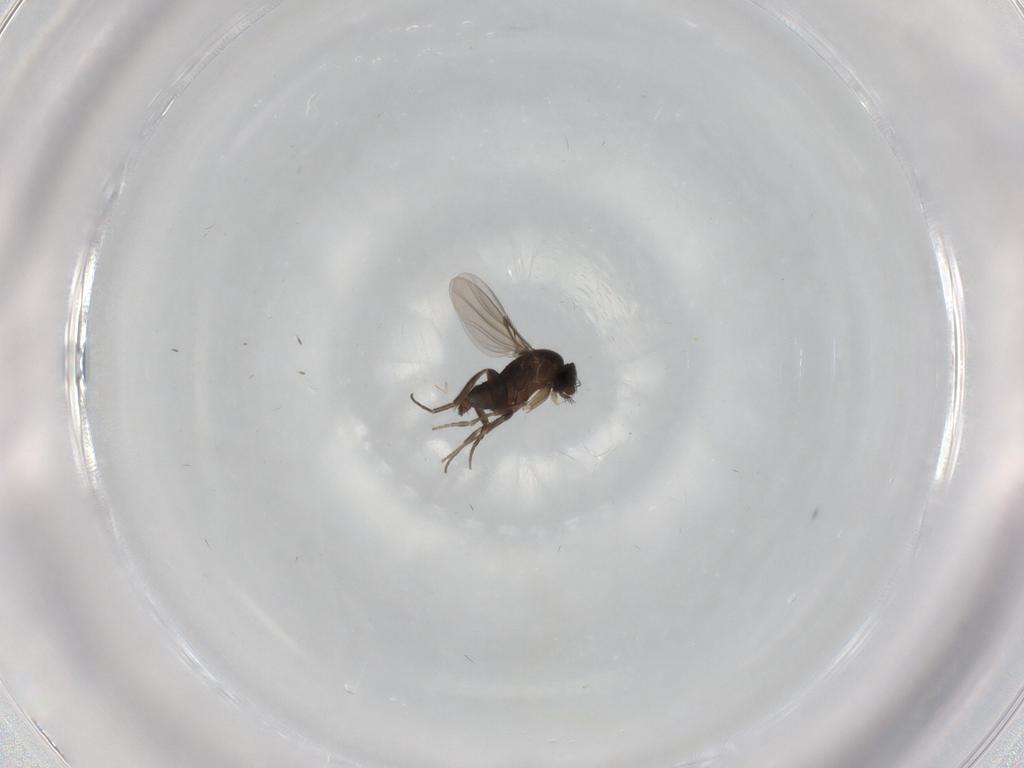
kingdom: Animalia
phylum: Arthropoda
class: Insecta
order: Diptera
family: Phoridae
